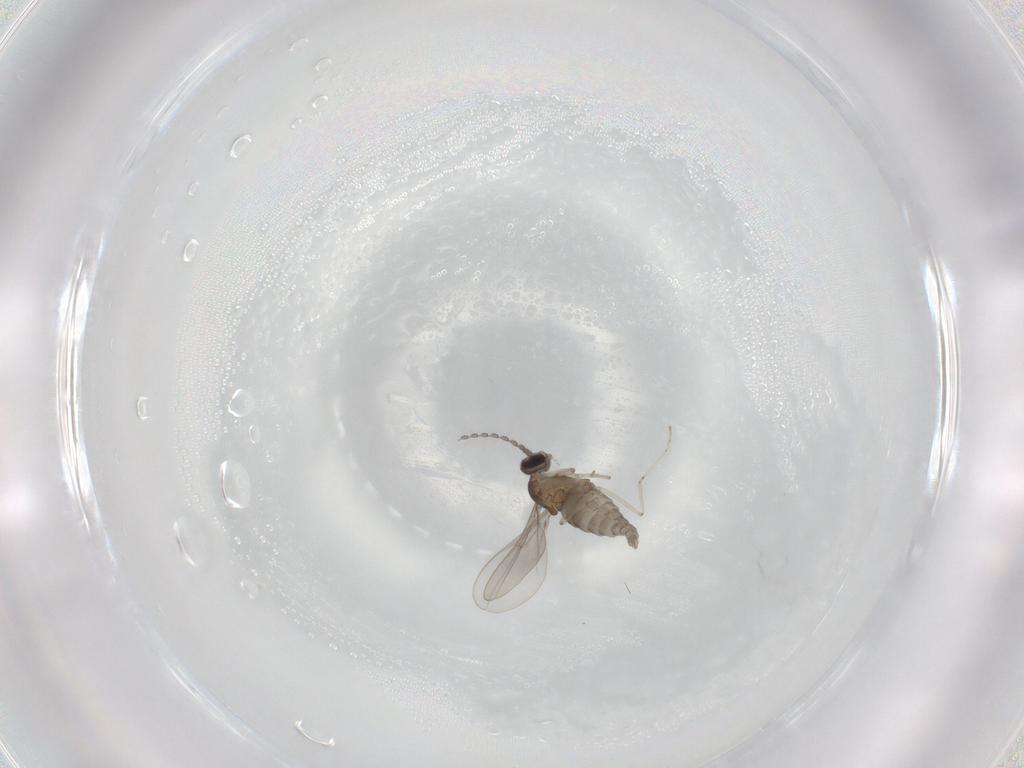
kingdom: Animalia
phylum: Arthropoda
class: Insecta
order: Diptera
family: Cecidomyiidae
